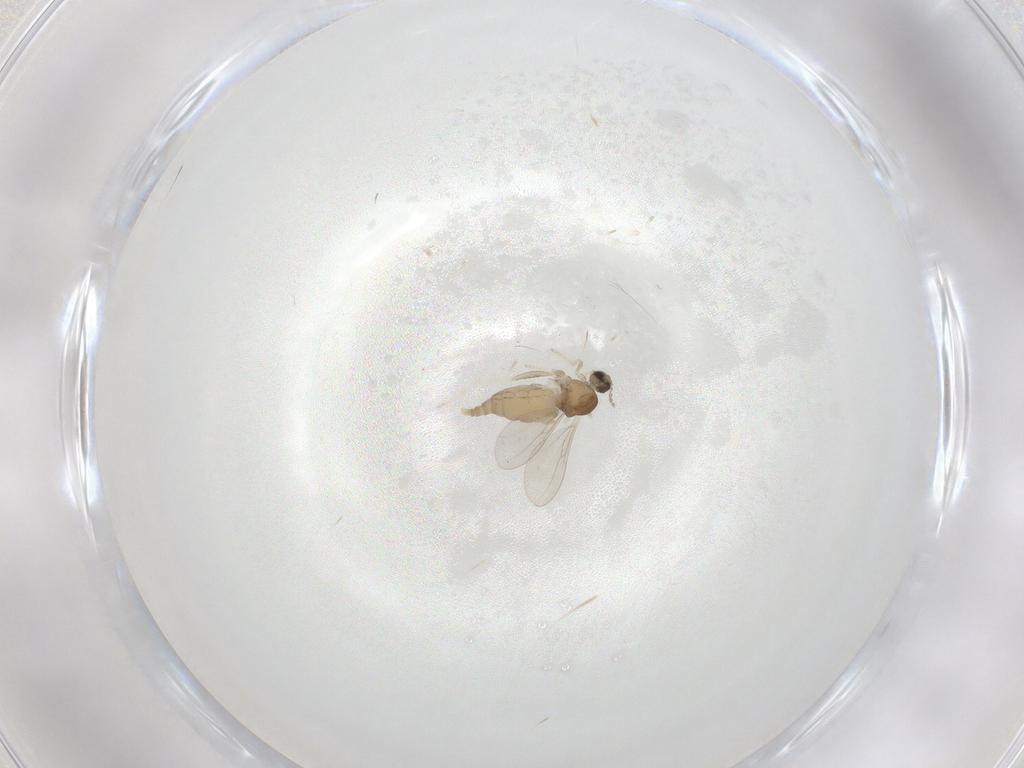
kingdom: Animalia
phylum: Arthropoda
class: Insecta
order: Diptera
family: Cecidomyiidae
